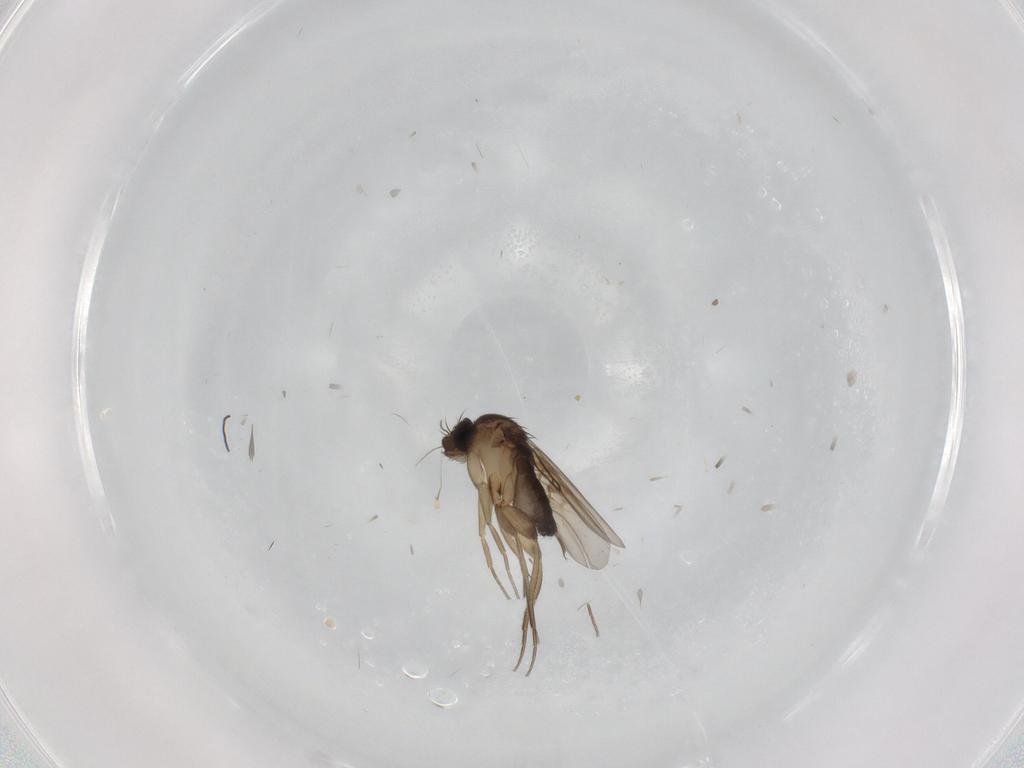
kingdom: Animalia
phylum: Arthropoda
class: Insecta
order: Diptera
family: Phoridae
